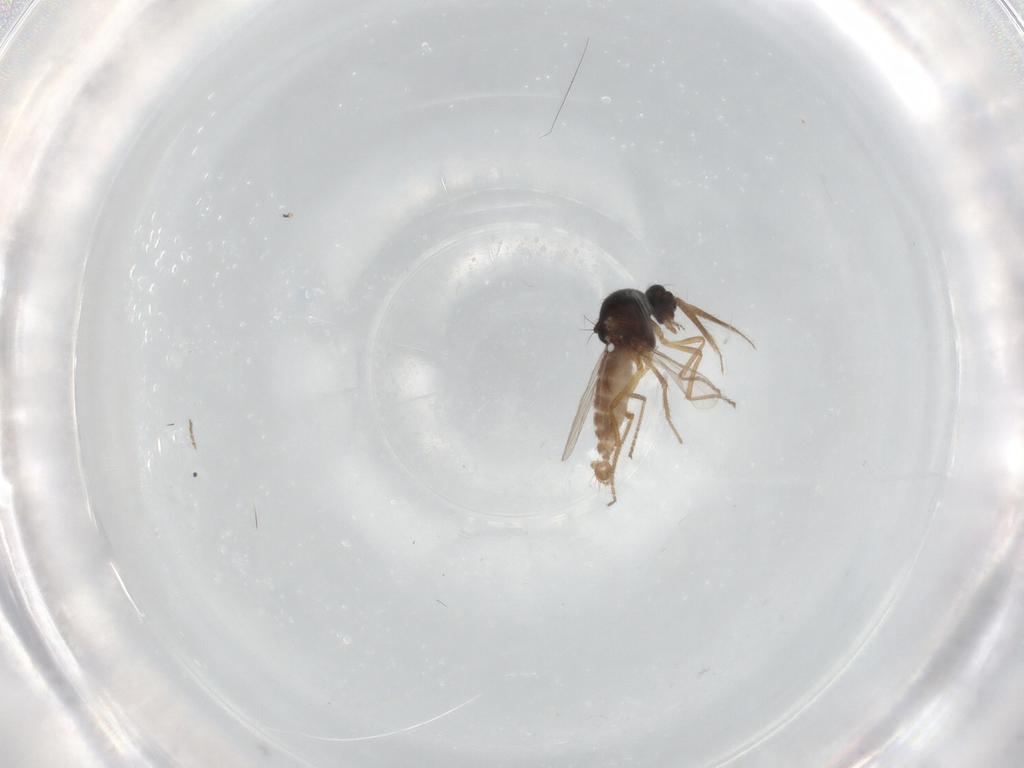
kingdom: Animalia
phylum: Arthropoda
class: Insecta
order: Diptera
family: Ceratopogonidae
